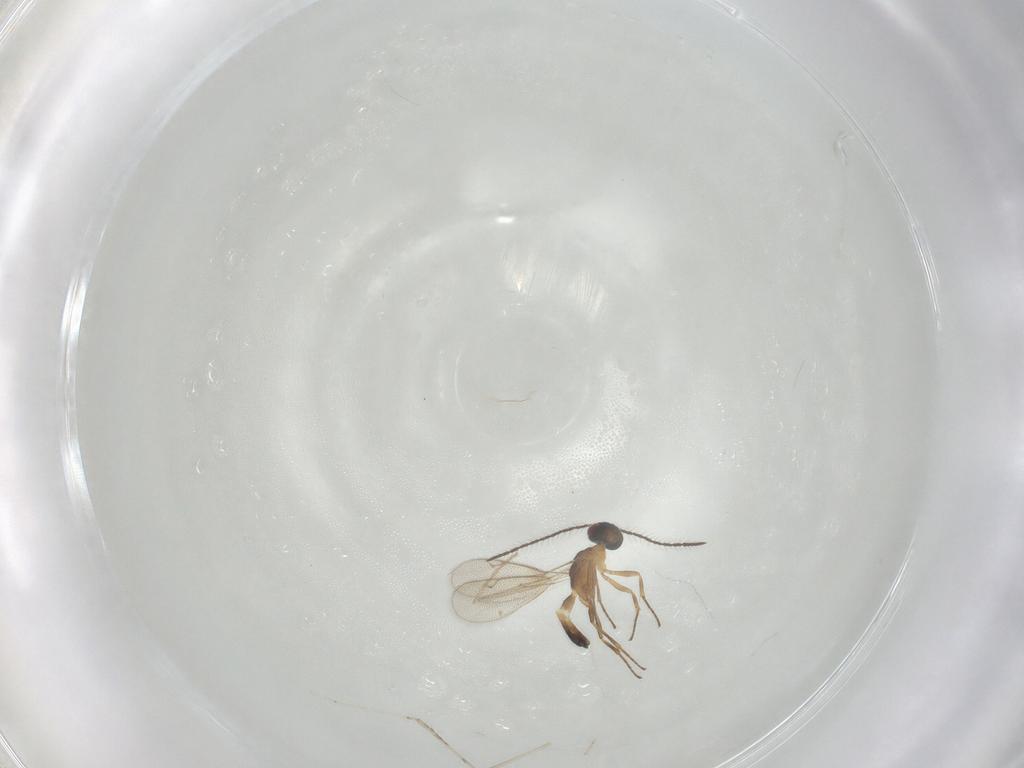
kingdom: Animalia
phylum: Arthropoda
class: Insecta
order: Hymenoptera
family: Eupelmidae
